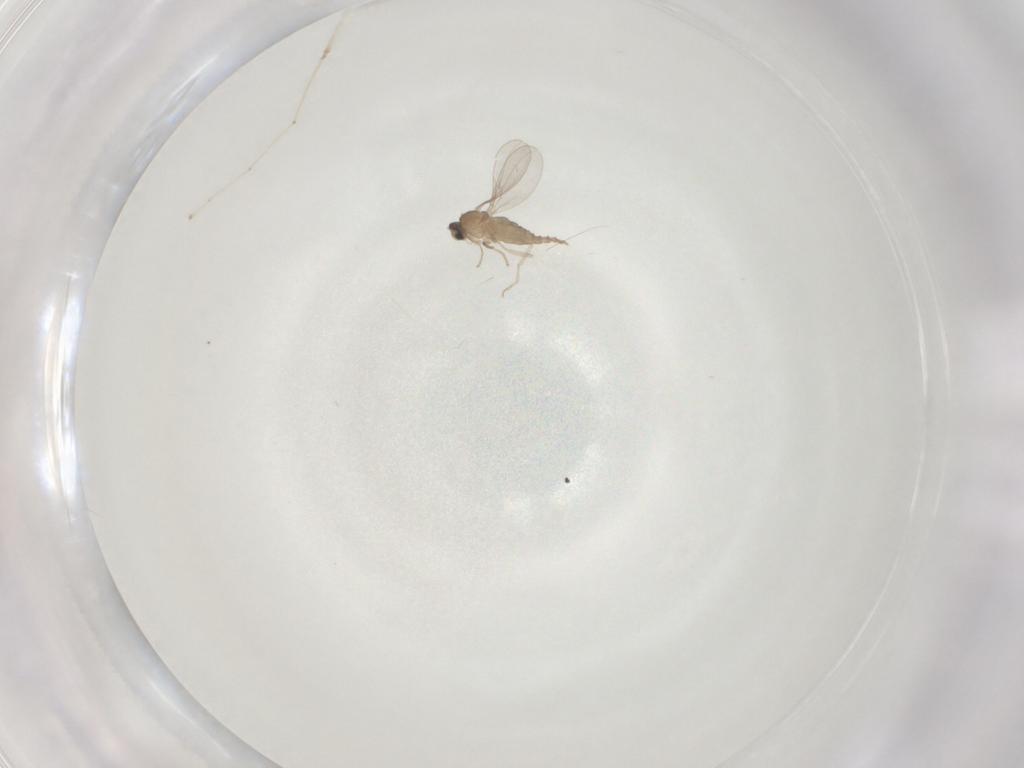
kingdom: Animalia
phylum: Arthropoda
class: Insecta
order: Diptera
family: Cecidomyiidae
